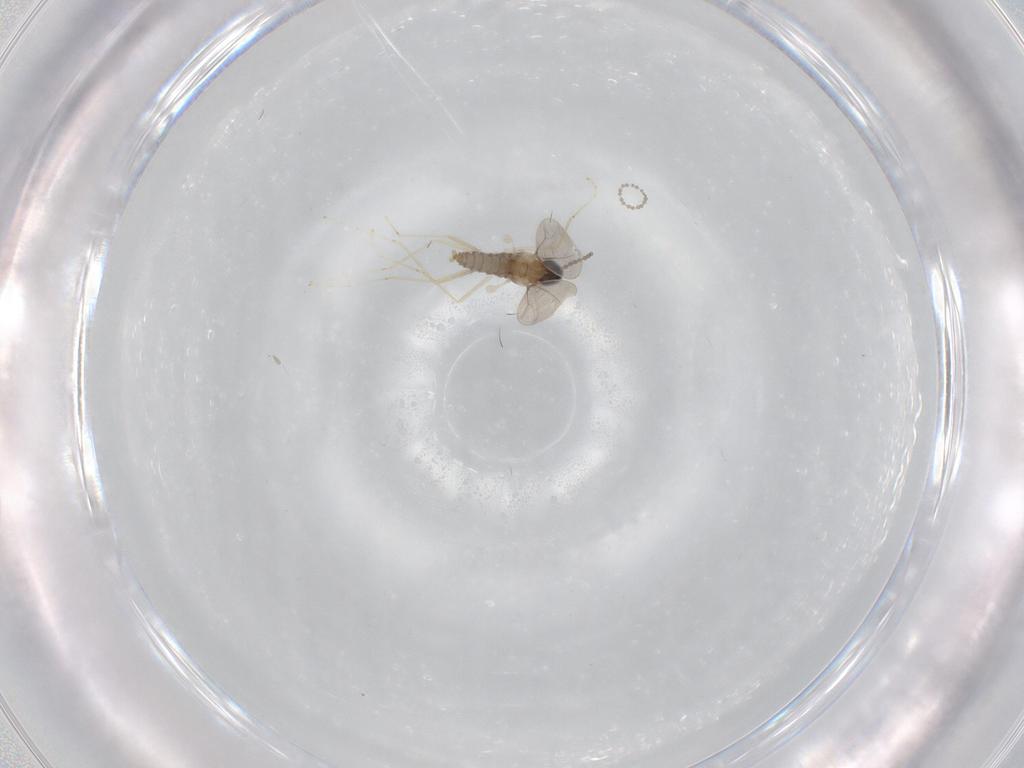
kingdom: Animalia
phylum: Arthropoda
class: Insecta
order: Diptera
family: Cecidomyiidae
